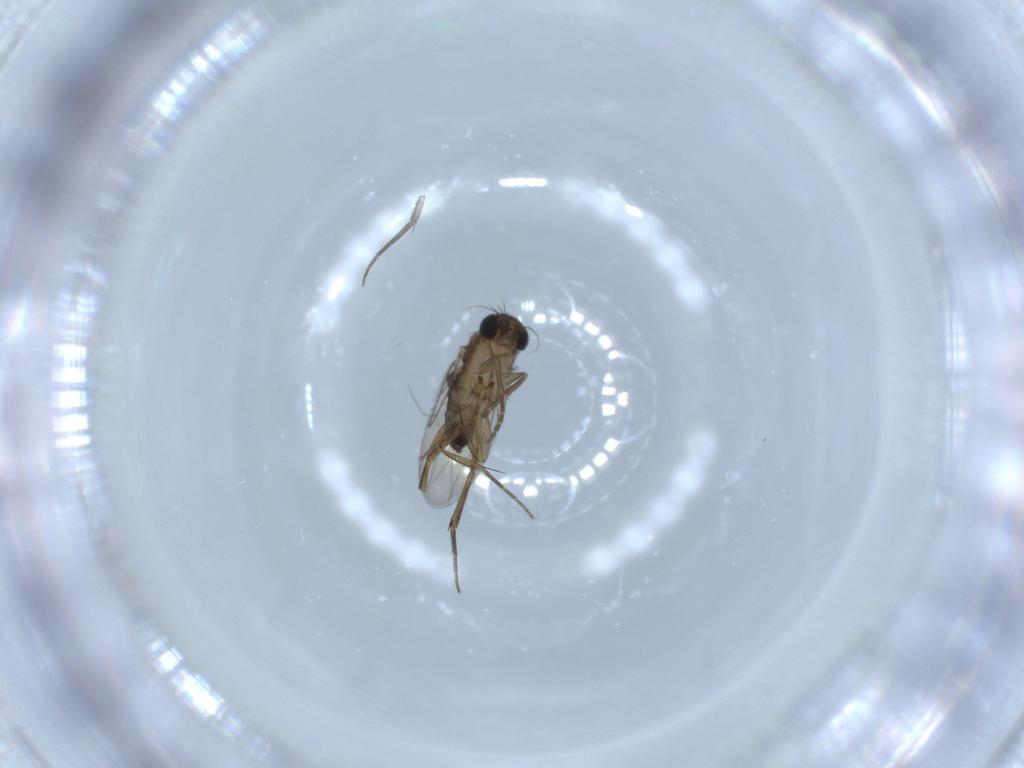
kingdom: Animalia
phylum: Arthropoda
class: Insecta
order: Diptera
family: Phoridae
